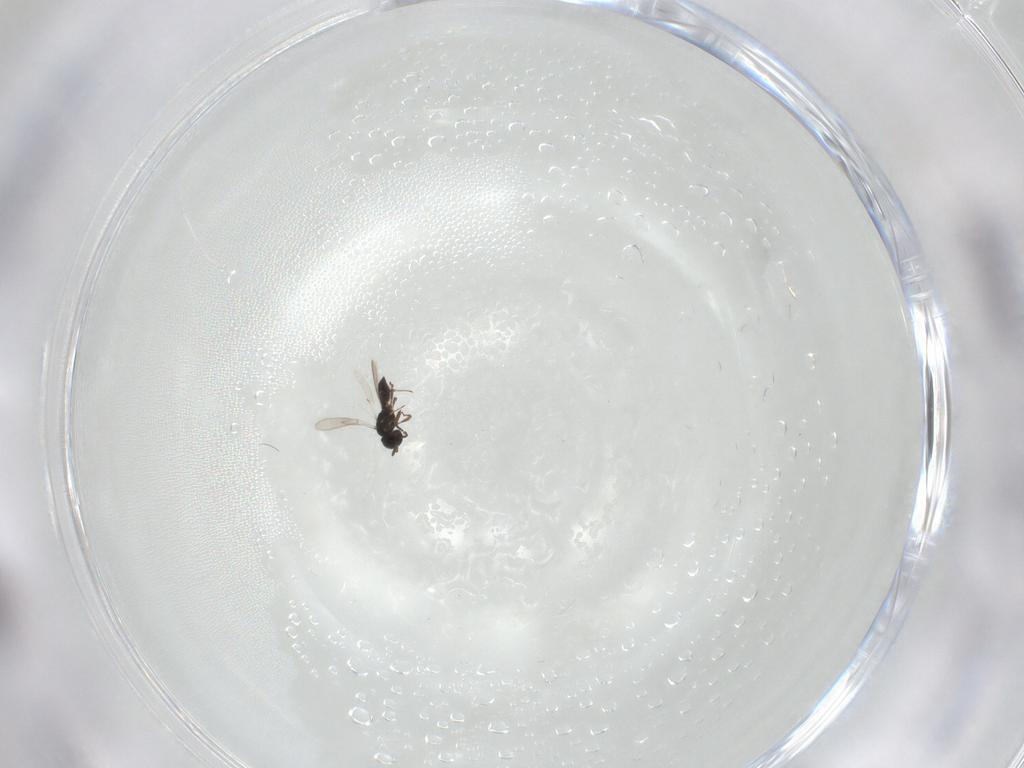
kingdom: Animalia
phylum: Arthropoda
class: Insecta
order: Hymenoptera
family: Scelionidae
